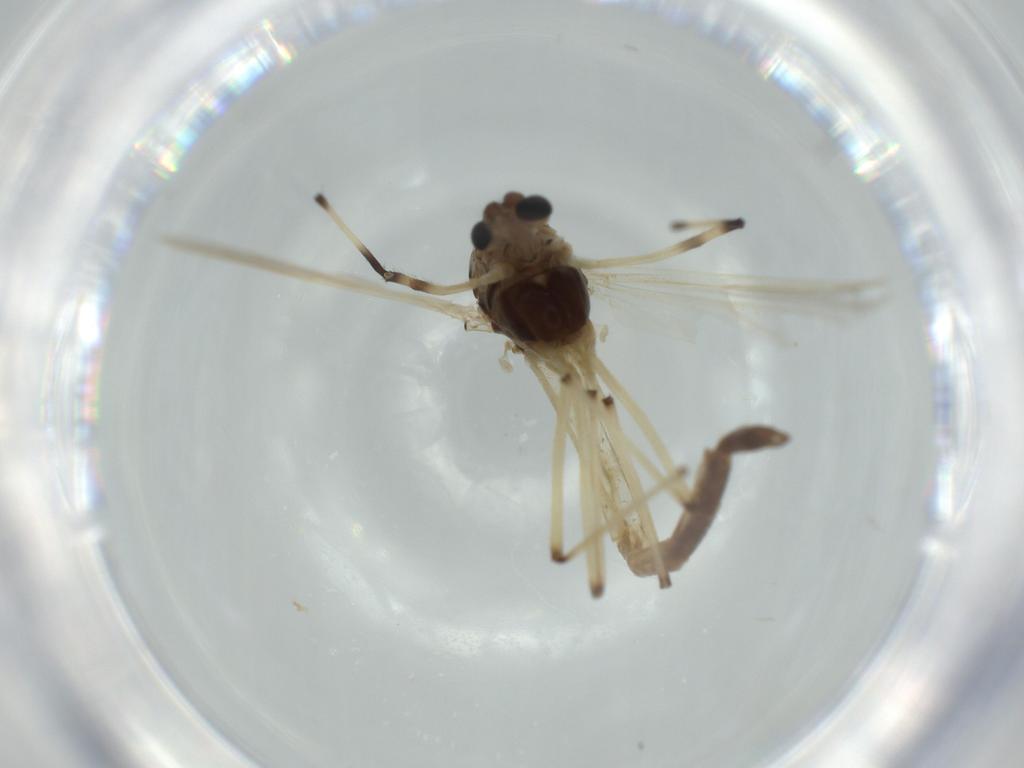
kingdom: Animalia
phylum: Arthropoda
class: Insecta
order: Diptera
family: Chironomidae
